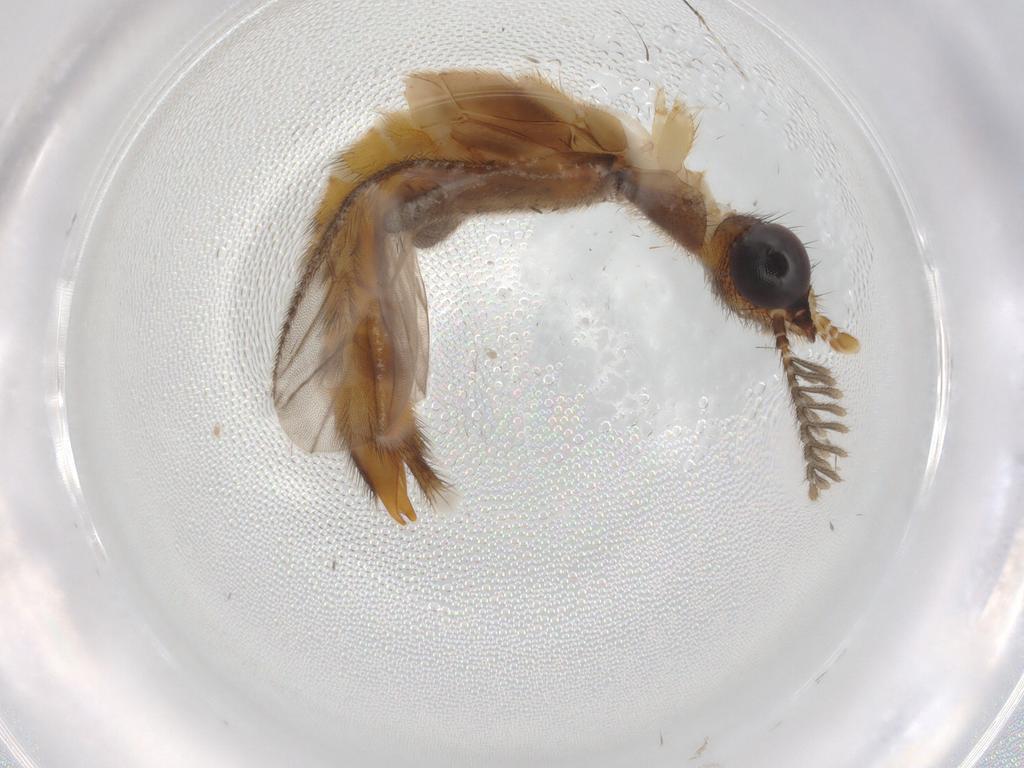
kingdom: Animalia
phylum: Arthropoda
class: Insecta
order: Coleoptera
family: Chrysomelidae
